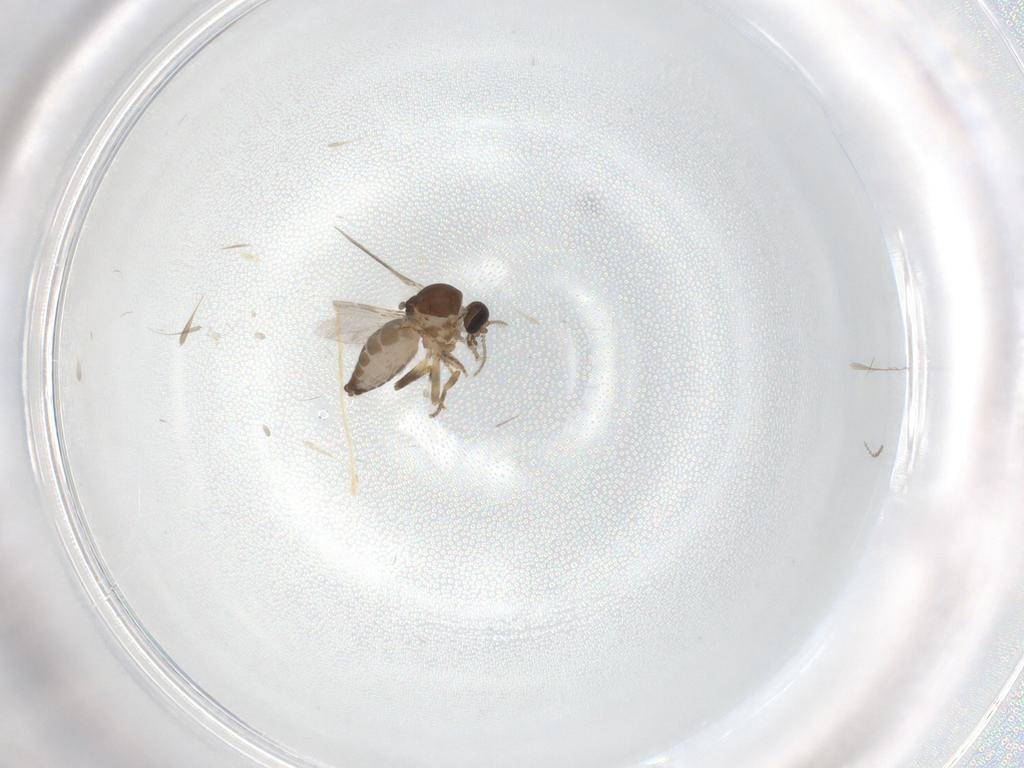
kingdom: Animalia
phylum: Arthropoda
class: Insecta
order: Diptera
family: Ceratopogonidae
